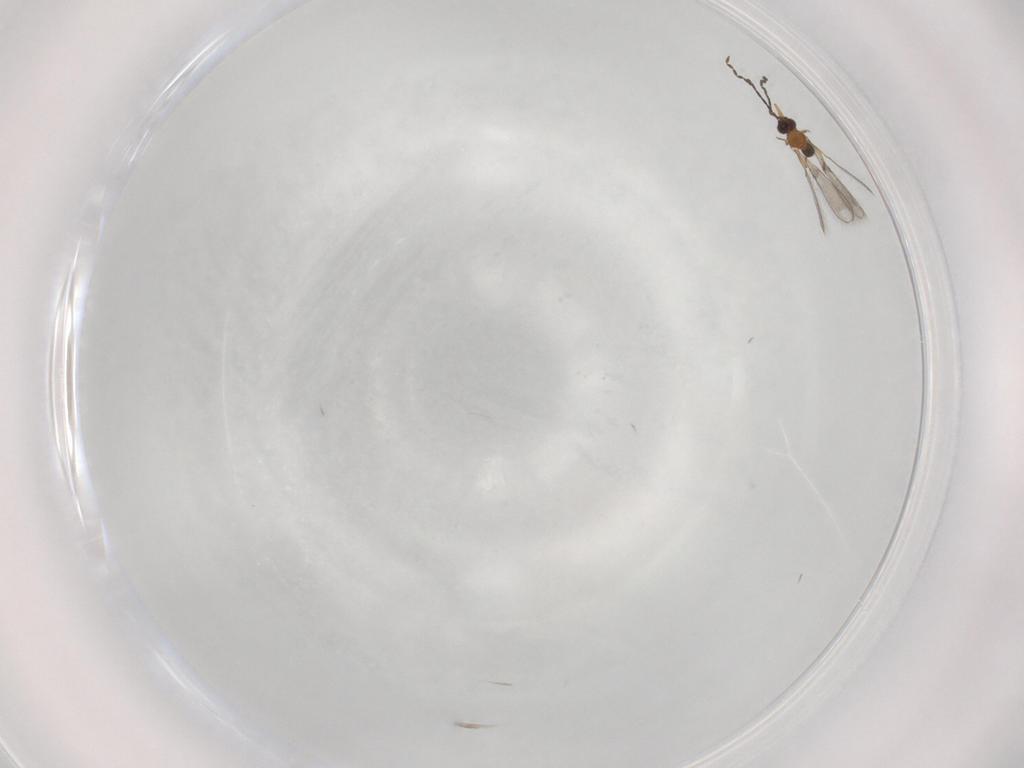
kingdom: Animalia
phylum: Arthropoda
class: Insecta
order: Hymenoptera
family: Mymaridae
